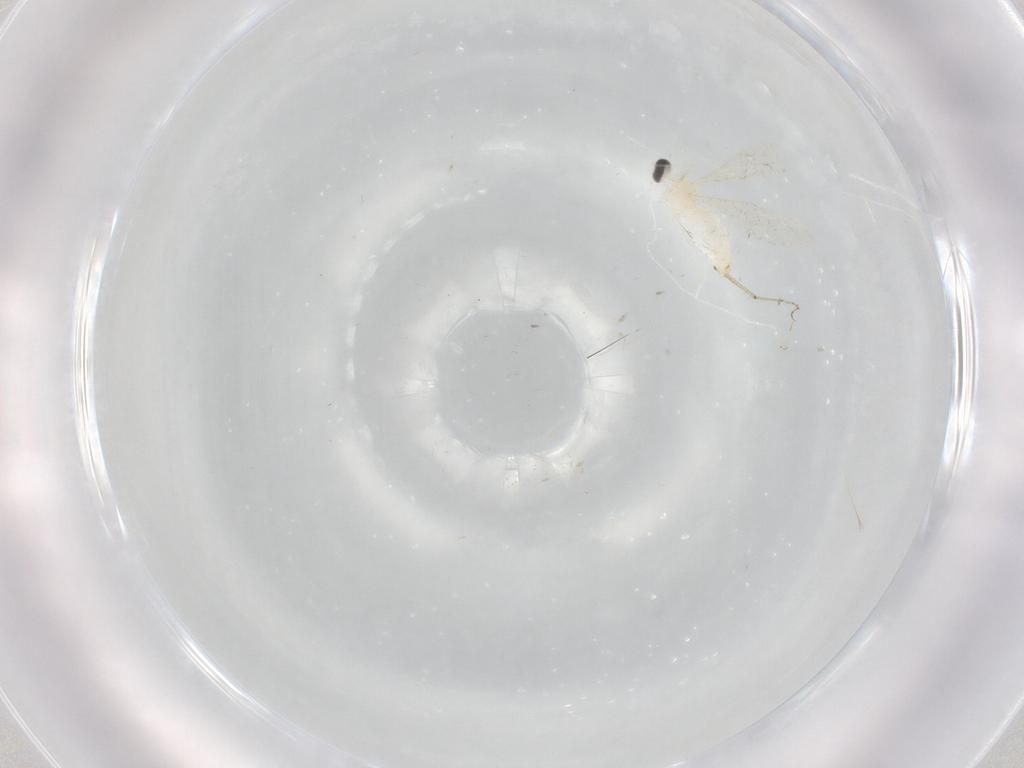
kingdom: Animalia
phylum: Arthropoda
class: Insecta
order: Diptera
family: Cecidomyiidae
